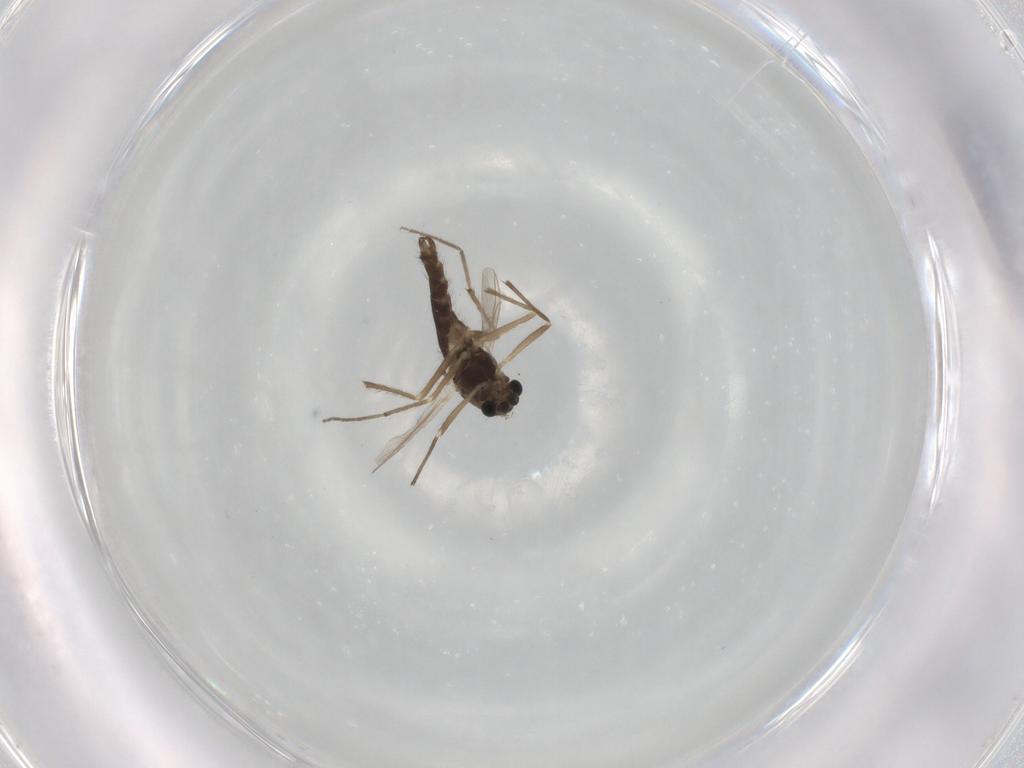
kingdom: Animalia
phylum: Arthropoda
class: Insecta
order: Diptera
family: Chironomidae
